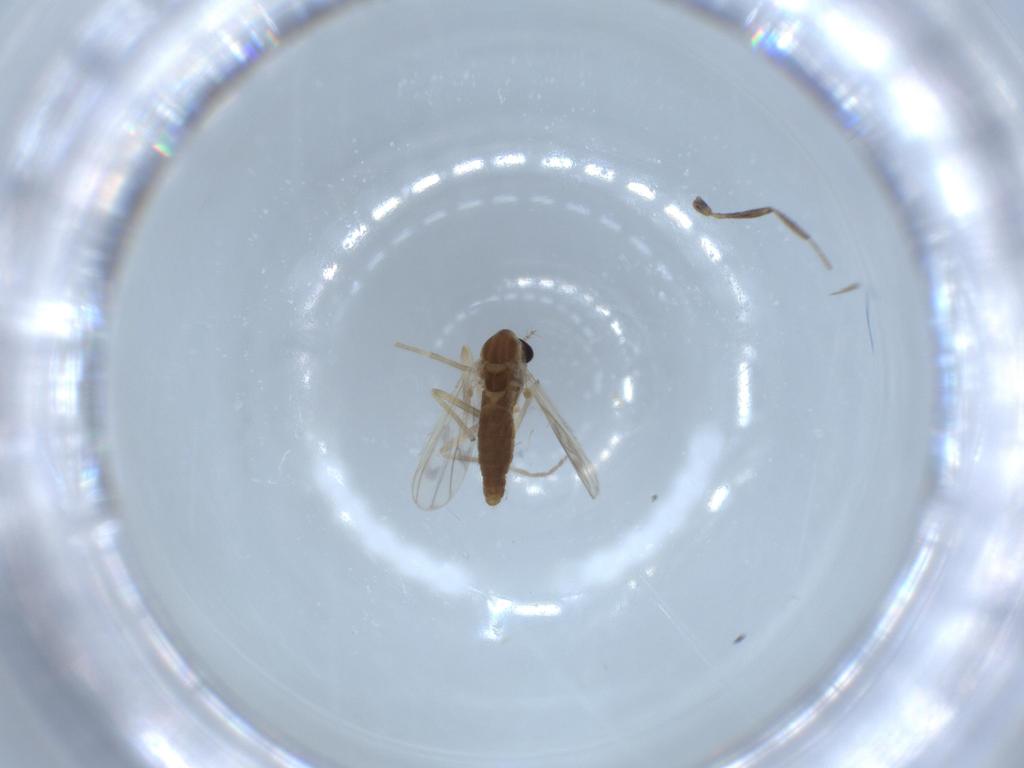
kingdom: Animalia
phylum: Arthropoda
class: Insecta
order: Diptera
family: Chironomidae
